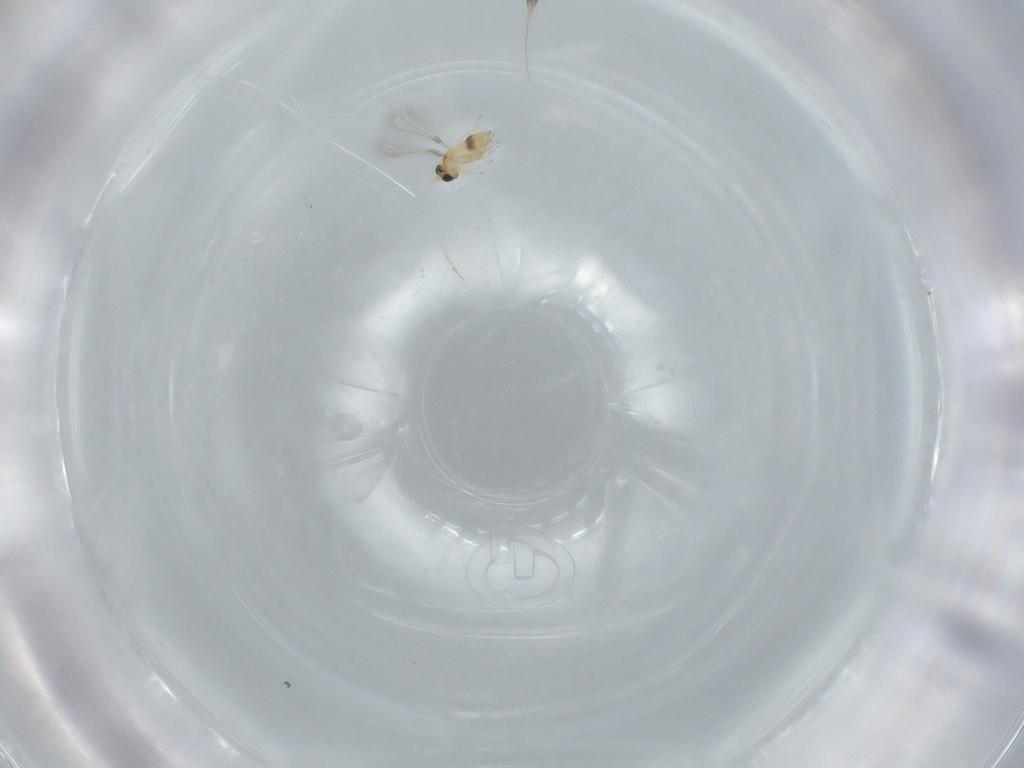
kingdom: Animalia
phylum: Arthropoda
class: Insecta
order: Hymenoptera
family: Mymaridae
